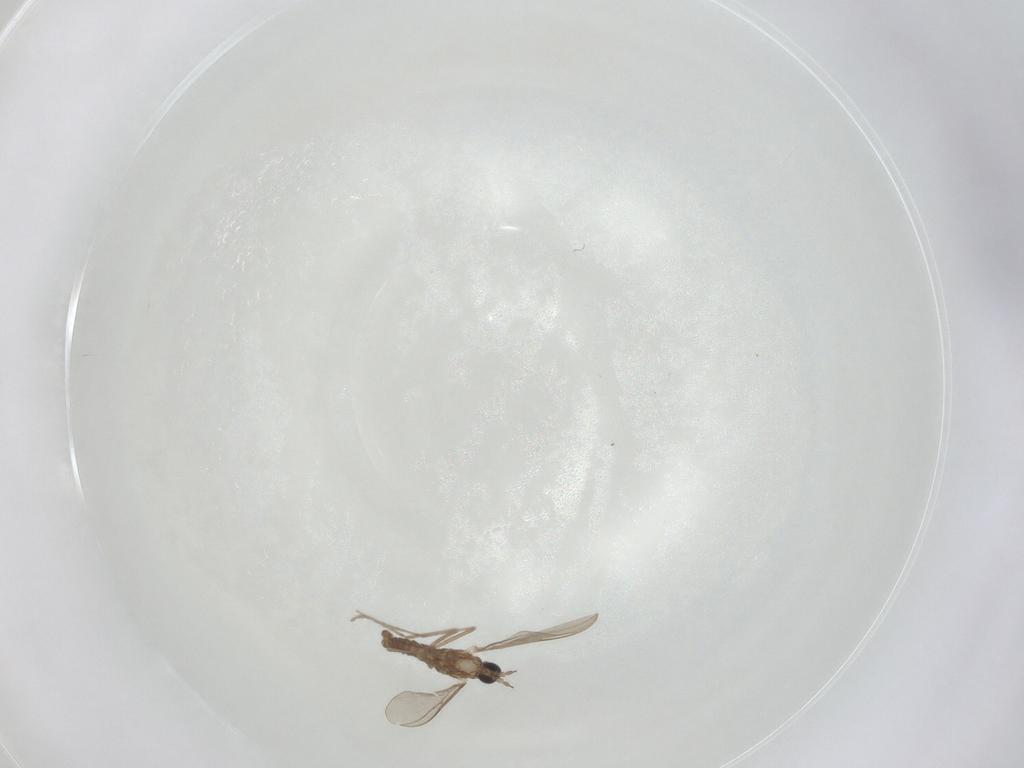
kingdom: Animalia
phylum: Arthropoda
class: Insecta
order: Diptera
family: Cecidomyiidae
